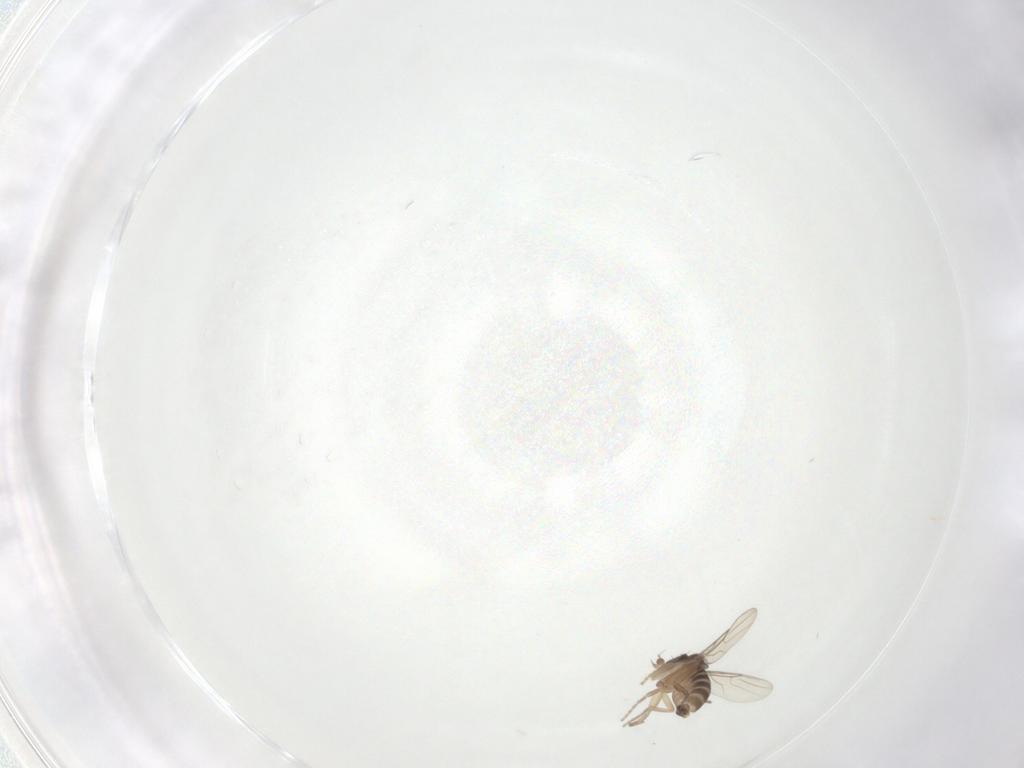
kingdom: Animalia
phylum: Arthropoda
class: Insecta
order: Diptera
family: Phoridae
